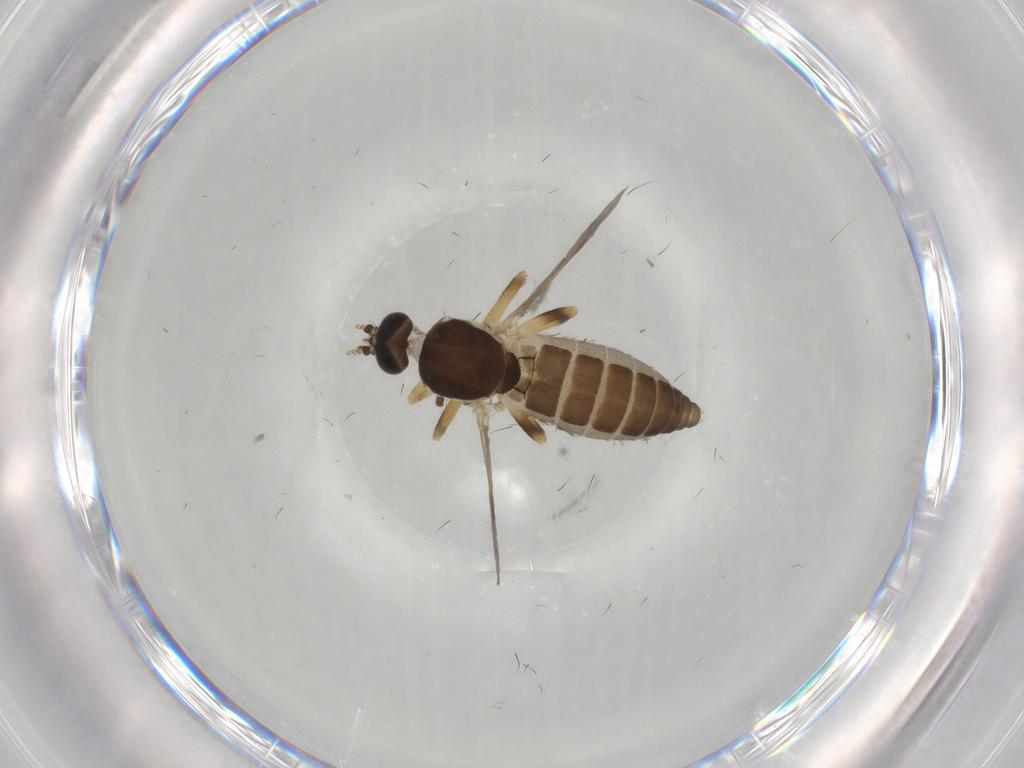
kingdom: Animalia
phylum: Arthropoda
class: Insecta
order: Diptera
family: Ceratopogonidae
